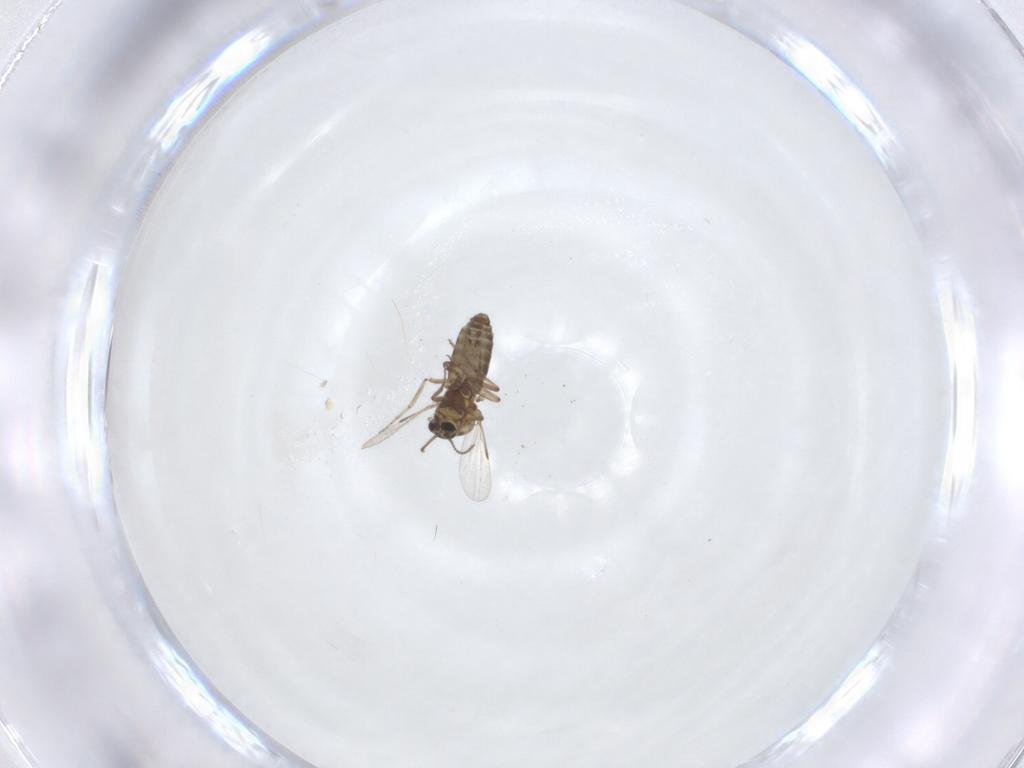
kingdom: Animalia
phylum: Arthropoda
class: Insecta
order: Diptera
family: Ceratopogonidae
